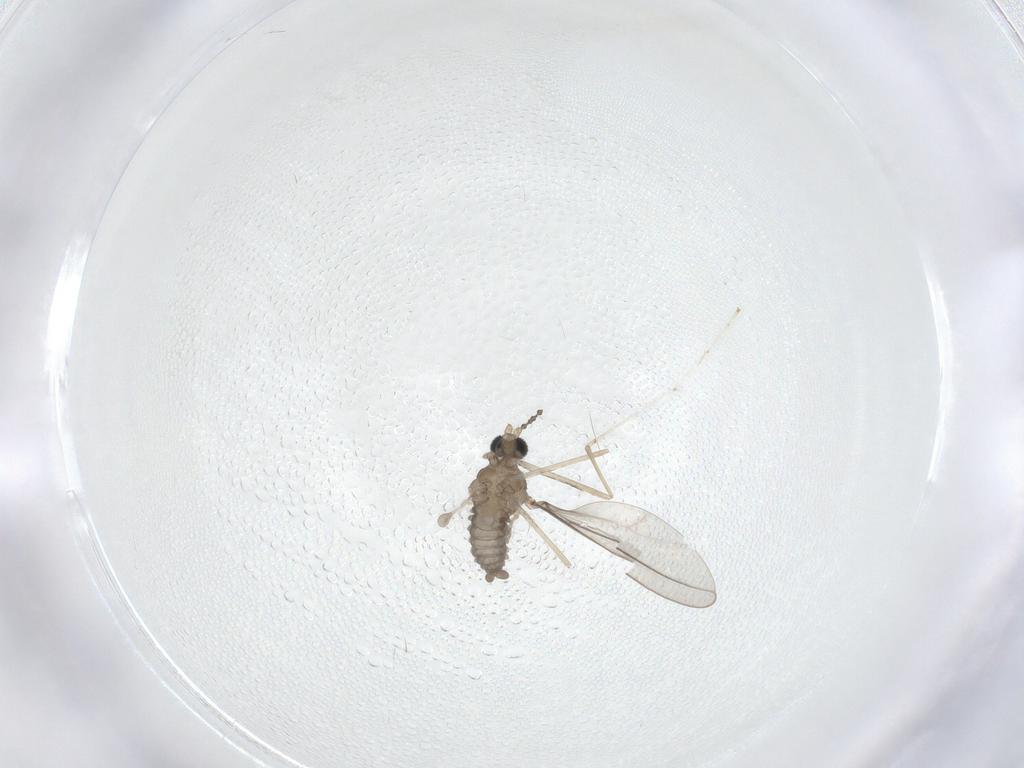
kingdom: Animalia
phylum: Arthropoda
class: Insecta
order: Diptera
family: Cecidomyiidae
